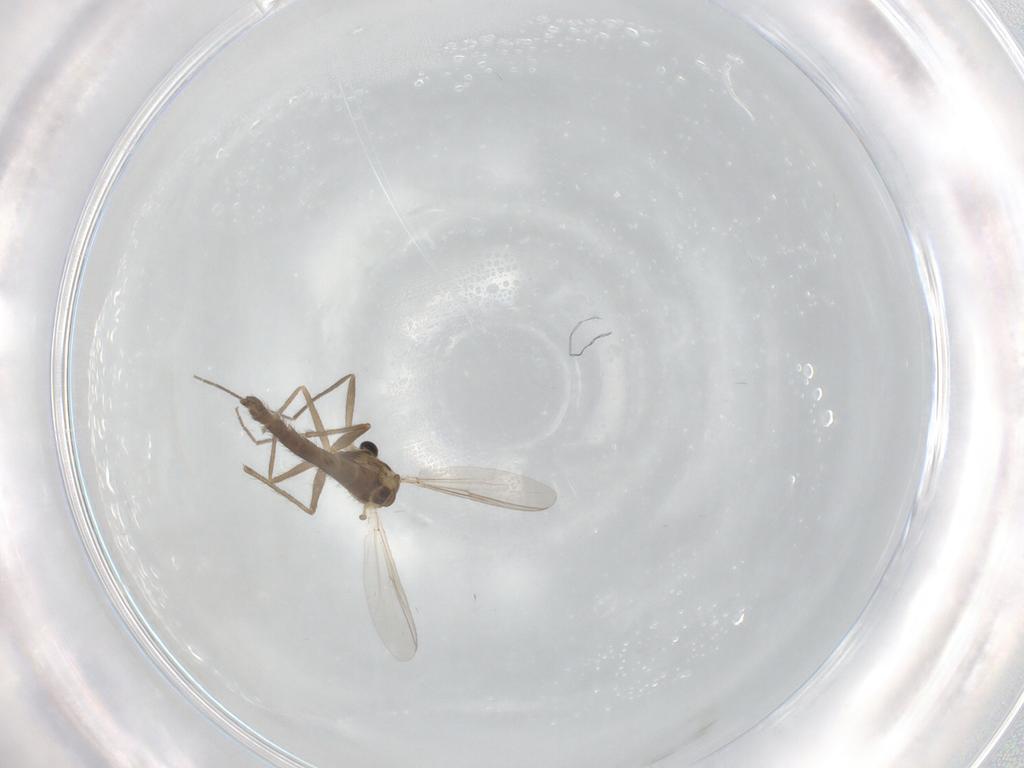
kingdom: Animalia
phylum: Arthropoda
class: Insecta
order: Diptera
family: Chironomidae
